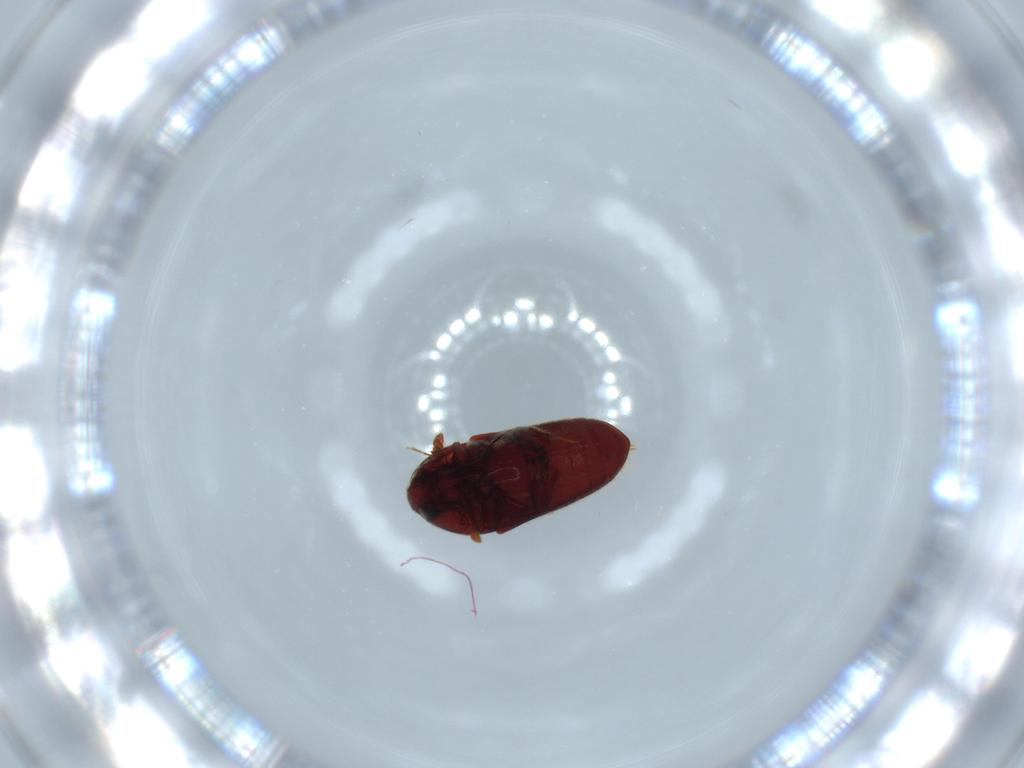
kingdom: Animalia
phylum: Arthropoda
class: Insecta
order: Coleoptera
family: Throscidae
